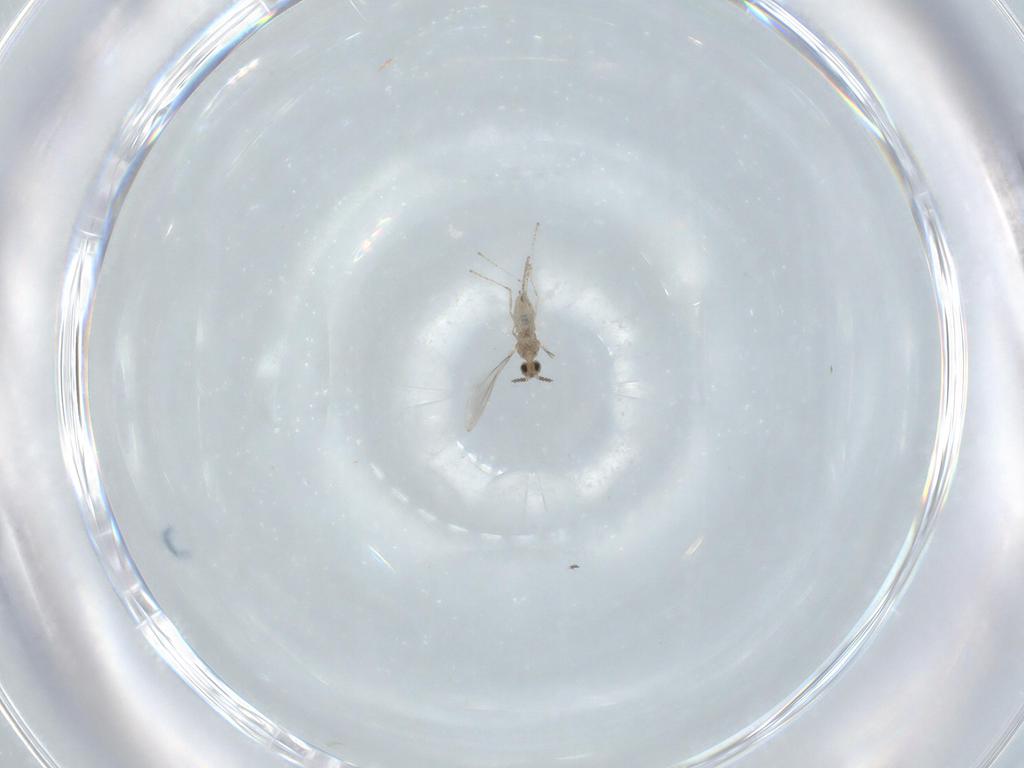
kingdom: Animalia
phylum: Arthropoda
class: Insecta
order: Diptera
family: Cecidomyiidae
